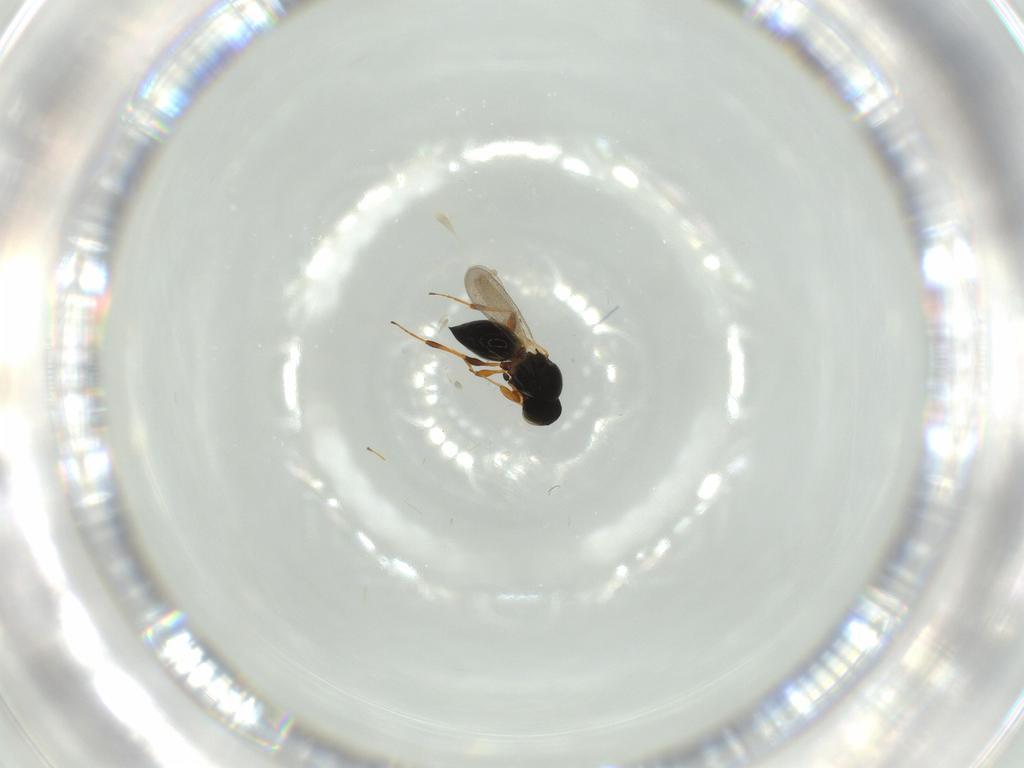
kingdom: Animalia
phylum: Arthropoda
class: Insecta
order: Hymenoptera
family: Platygastridae
